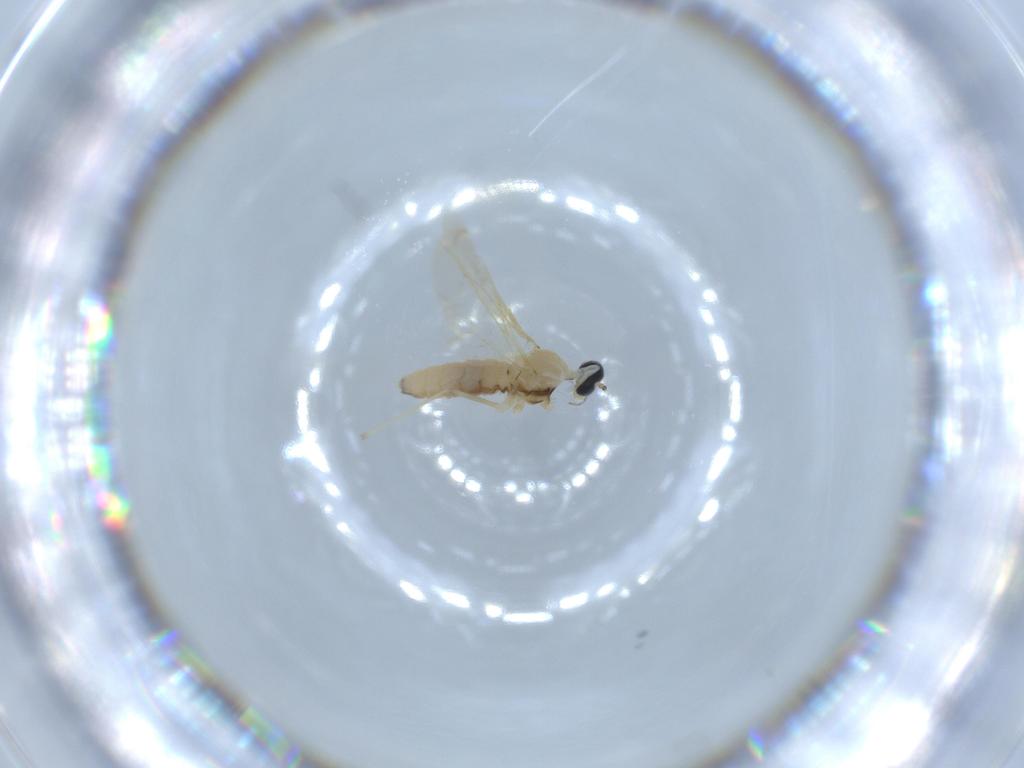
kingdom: Animalia
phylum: Arthropoda
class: Insecta
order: Diptera
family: Cecidomyiidae
